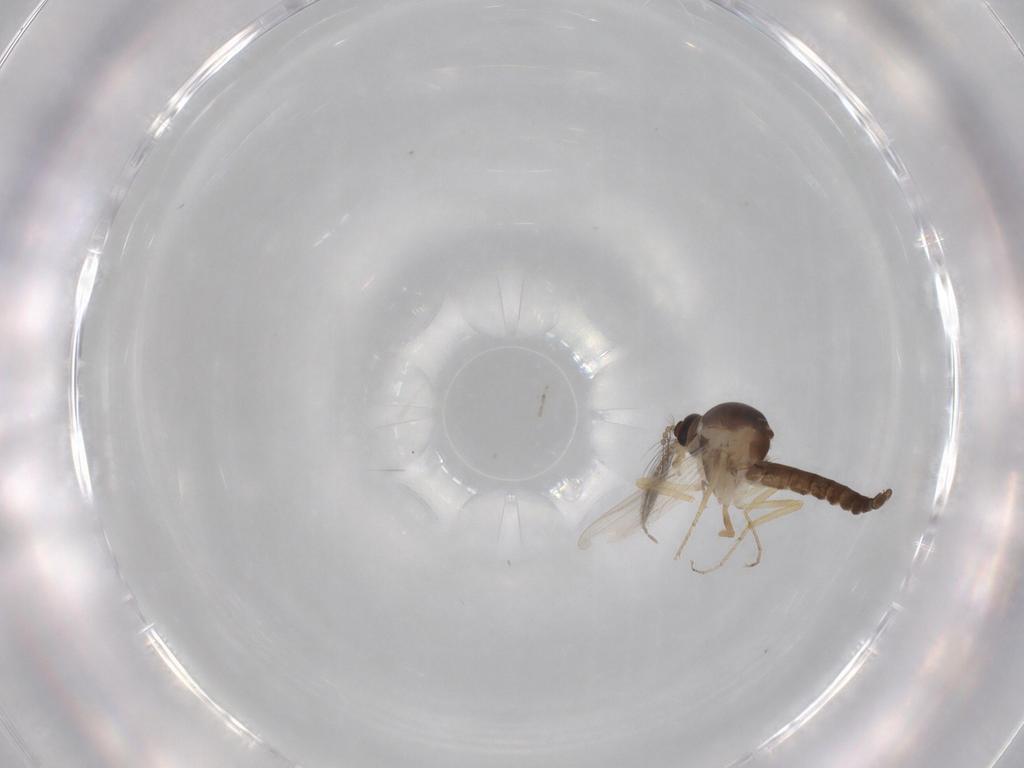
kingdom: Animalia
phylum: Arthropoda
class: Insecta
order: Diptera
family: Ceratopogonidae
